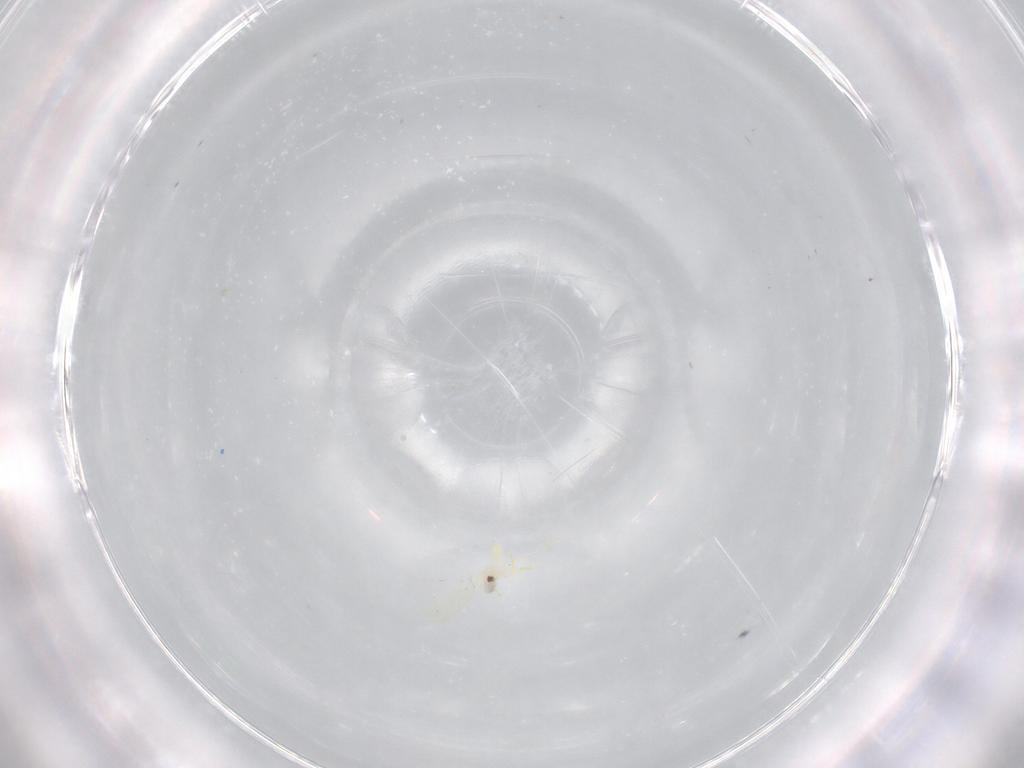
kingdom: Animalia
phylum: Arthropoda
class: Insecta
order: Hemiptera
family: Aleyrodidae
